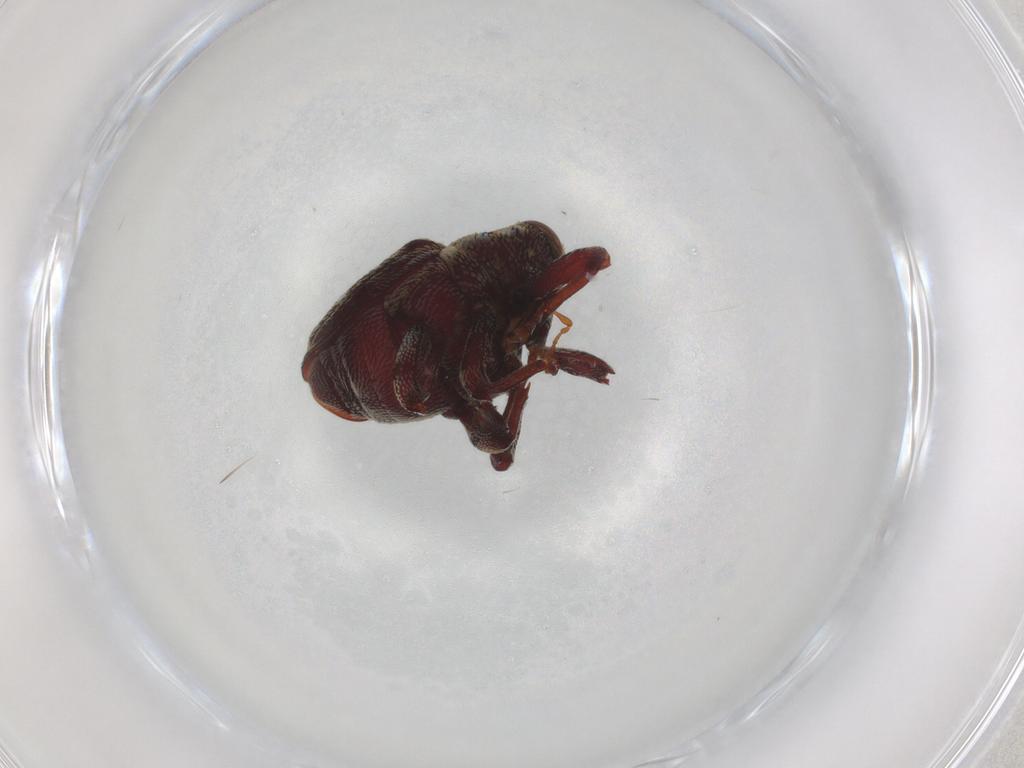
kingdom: Animalia
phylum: Arthropoda
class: Insecta
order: Coleoptera
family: Curculionidae
